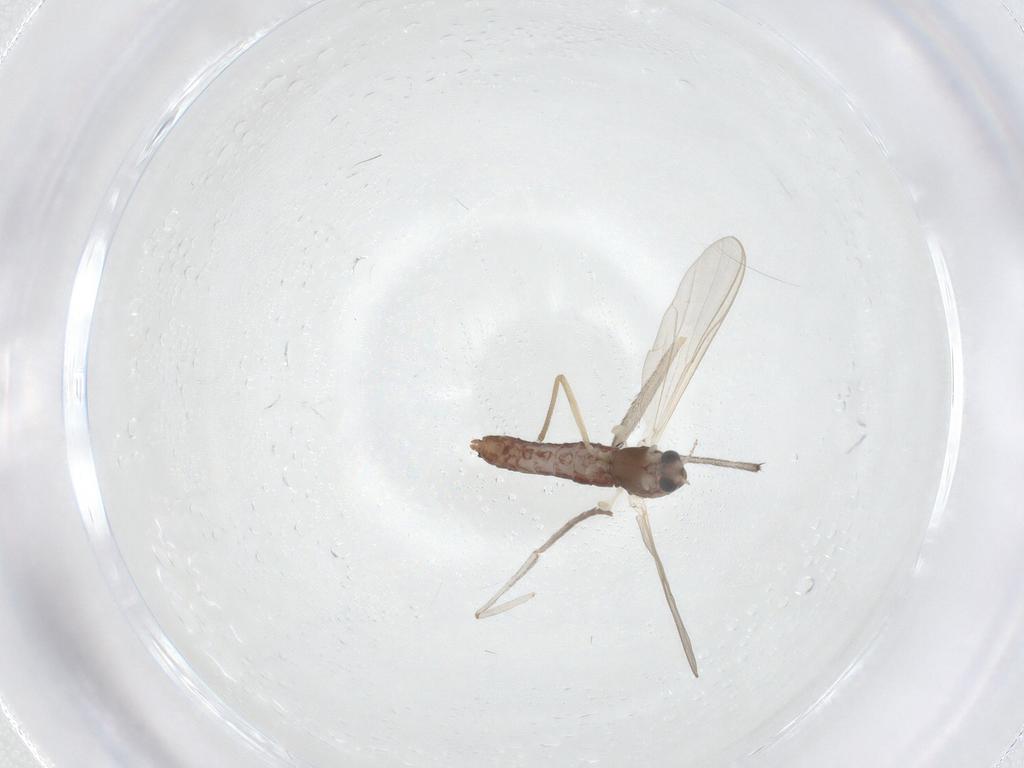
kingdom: Animalia
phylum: Arthropoda
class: Insecta
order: Diptera
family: Chironomidae
